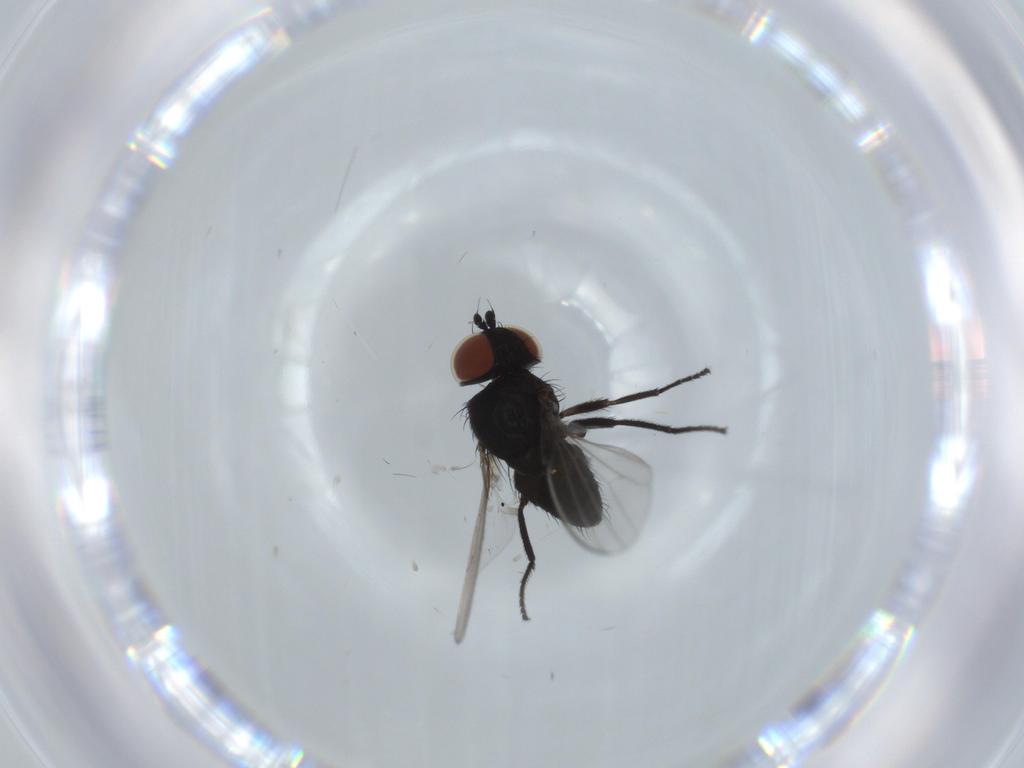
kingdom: Animalia
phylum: Arthropoda
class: Insecta
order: Diptera
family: Milichiidae
